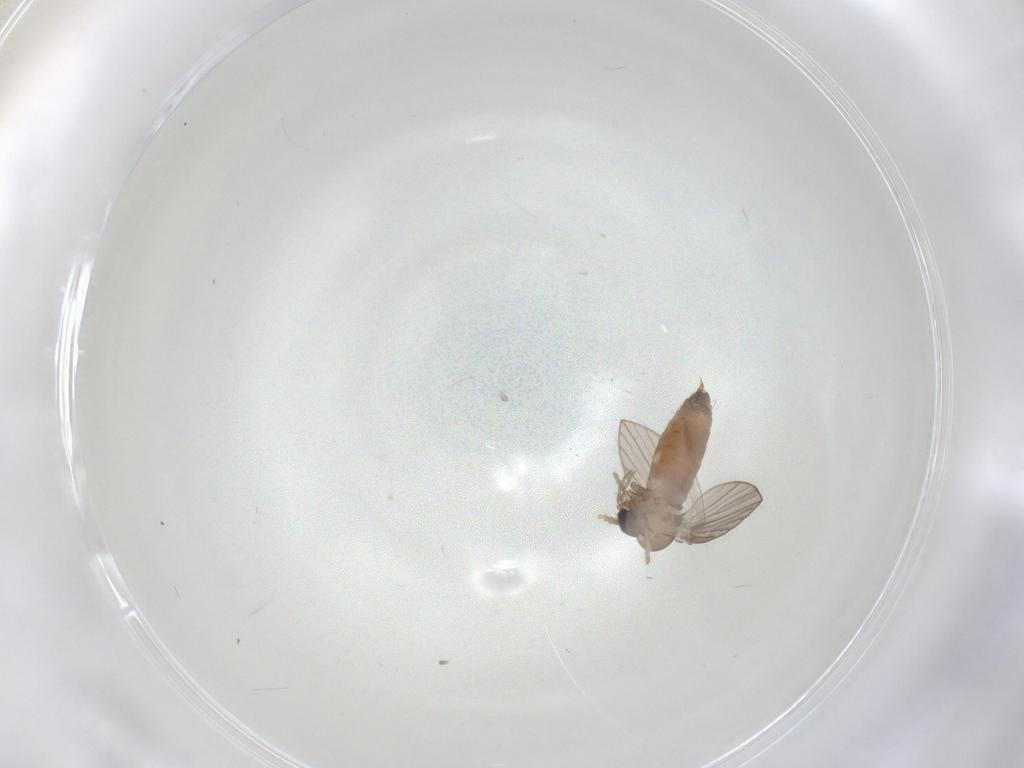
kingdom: Animalia
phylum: Arthropoda
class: Insecta
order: Diptera
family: Psychodidae
